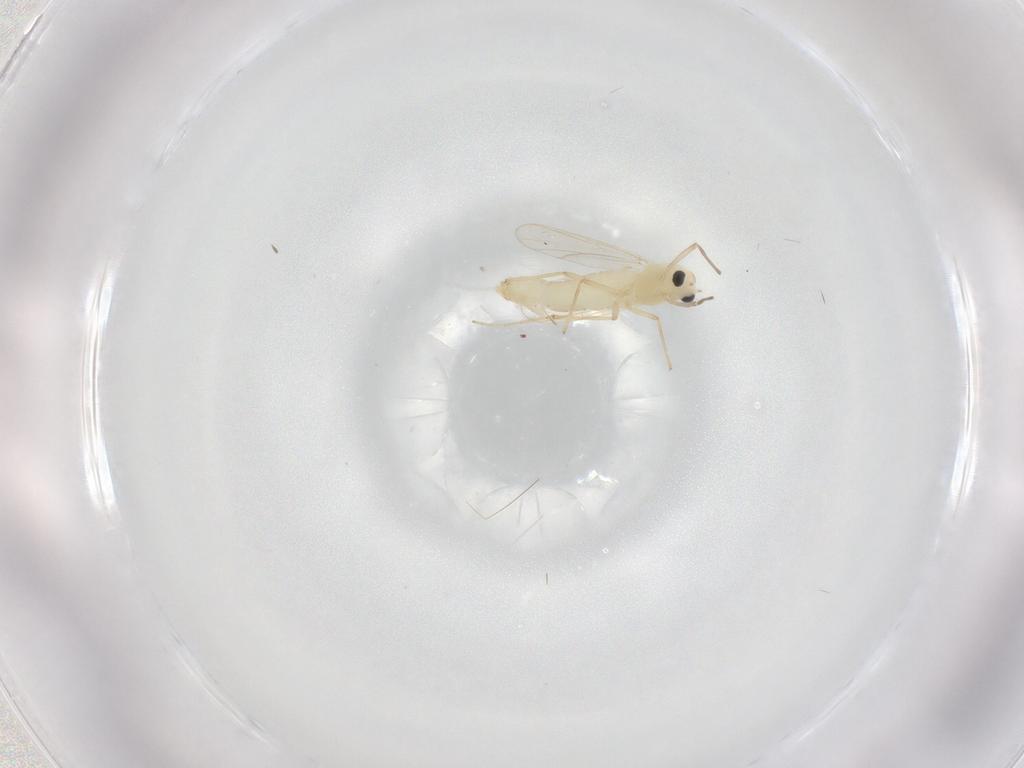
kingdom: Animalia
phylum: Arthropoda
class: Insecta
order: Diptera
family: Chironomidae
